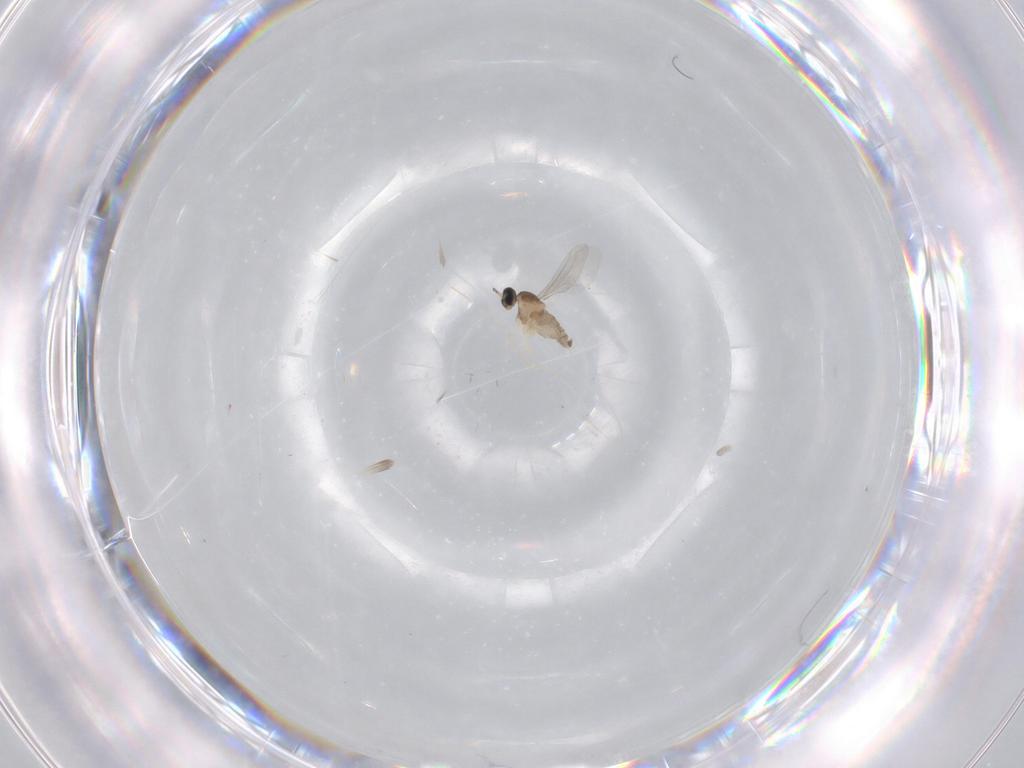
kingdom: Animalia
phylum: Arthropoda
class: Insecta
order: Diptera
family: Cecidomyiidae
